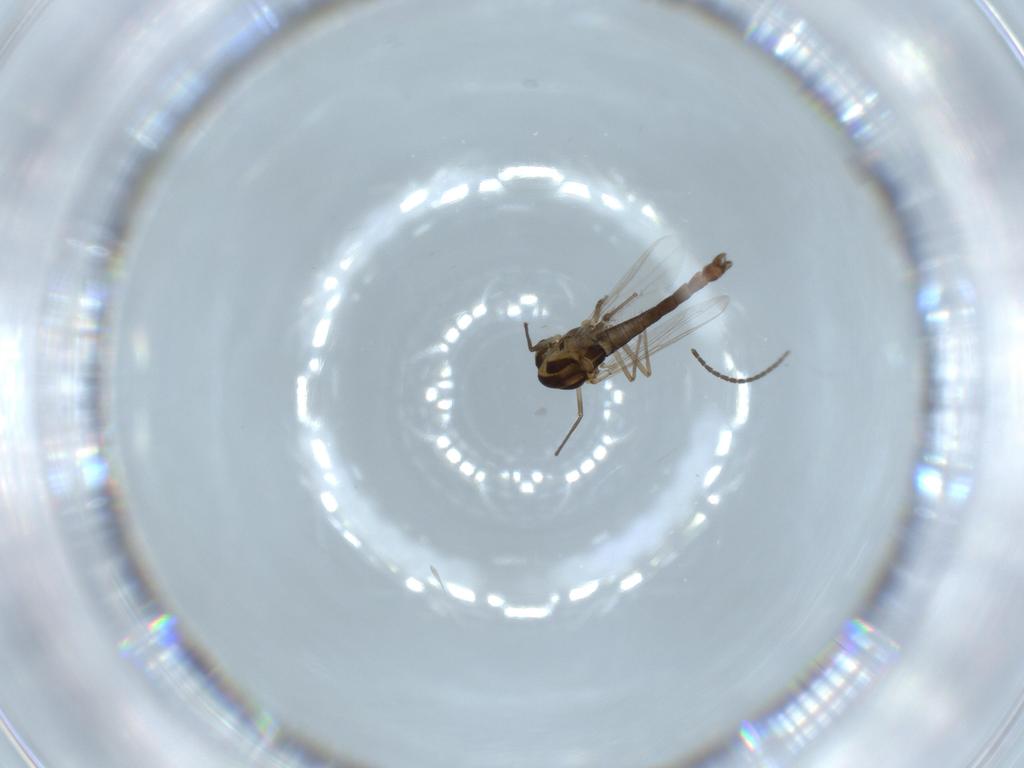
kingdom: Animalia
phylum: Arthropoda
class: Insecta
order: Diptera
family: Chironomidae
